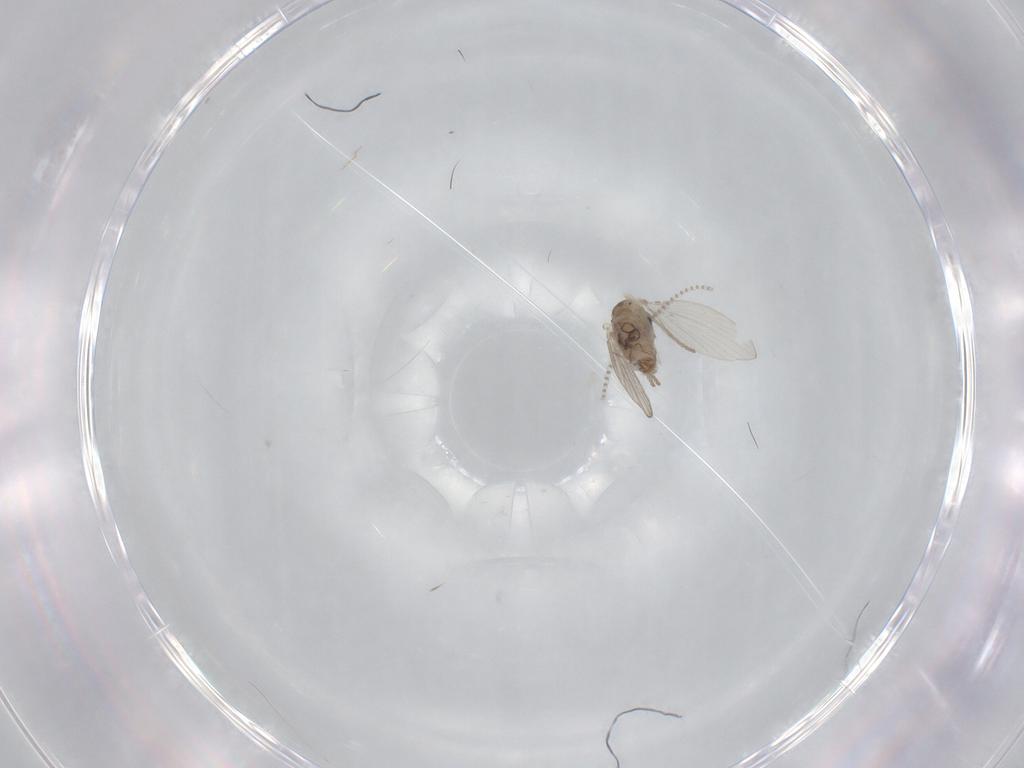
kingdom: Animalia
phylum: Arthropoda
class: Insecta
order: Diptera
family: Psychodidae
